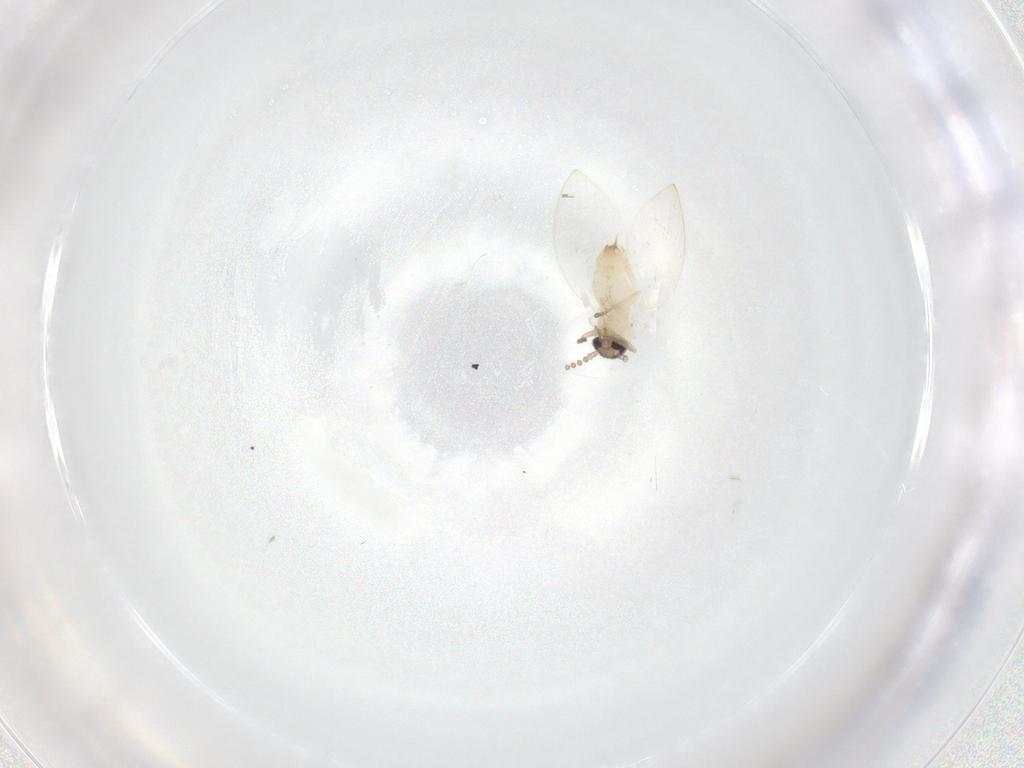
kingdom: Animalia
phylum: Arthropoda
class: Insecta
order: Diptera
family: Psychodidae
